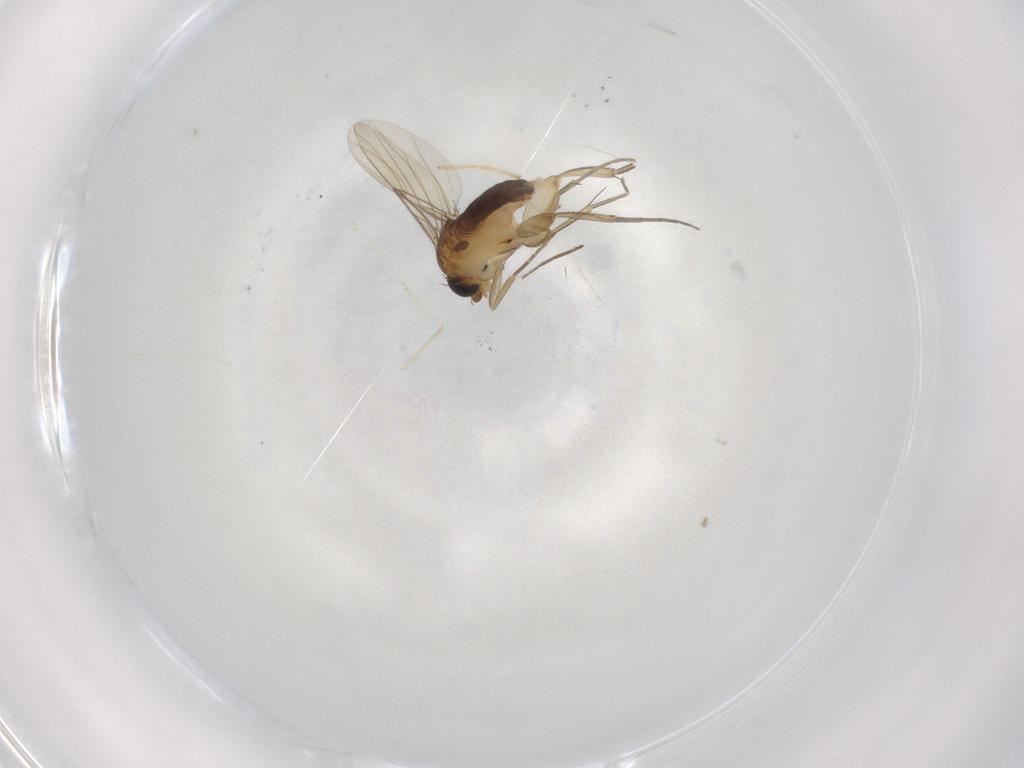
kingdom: Animalia
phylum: Arthropoda
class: Insecta
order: Diptera
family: Phoridae
